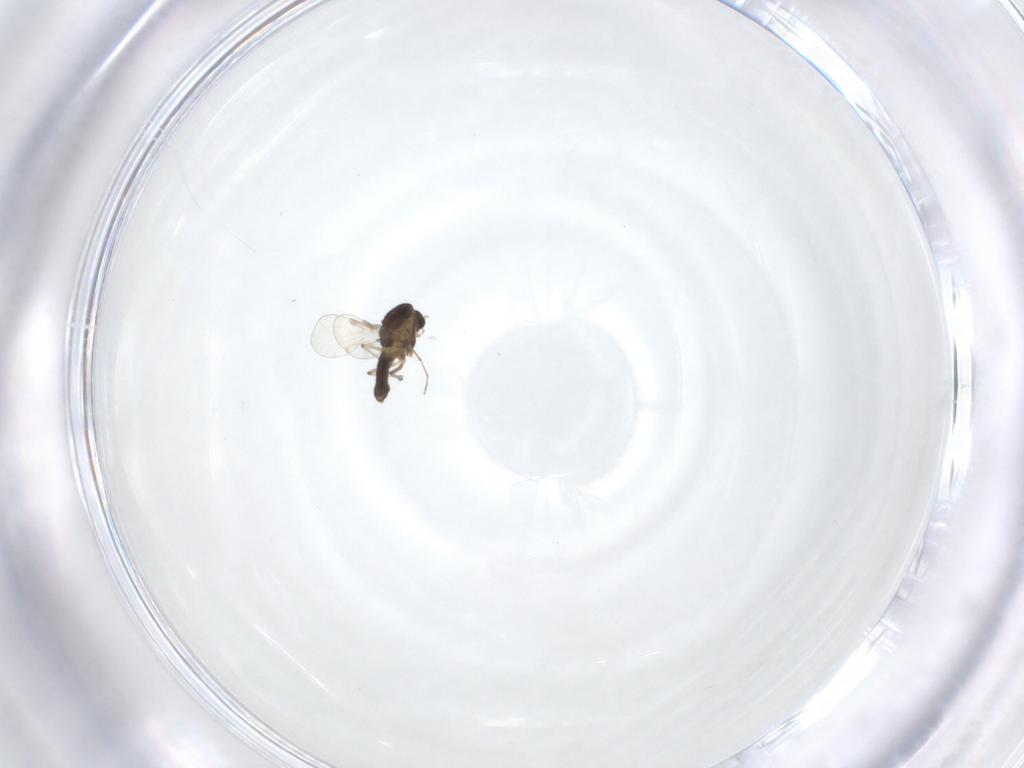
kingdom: Animalia
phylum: Arthropoda
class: Insecta
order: Diptera
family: Chironomidae
